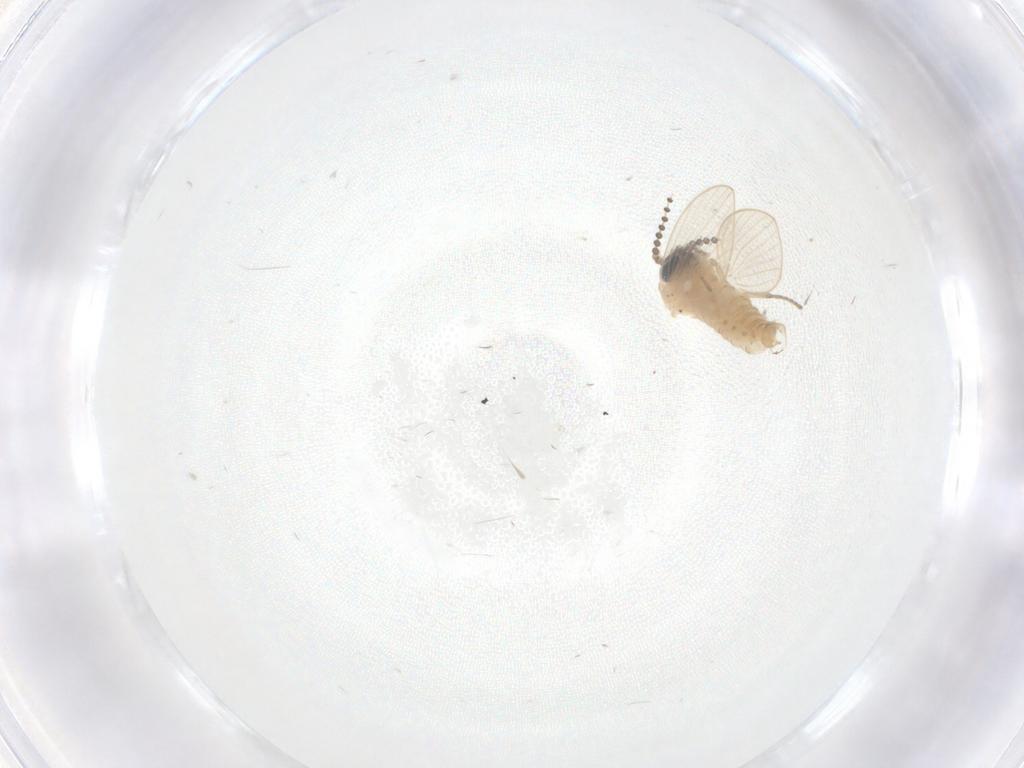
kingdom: Animalia
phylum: Arthropoda
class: Insecta
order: Diptera
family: Psychodidae
